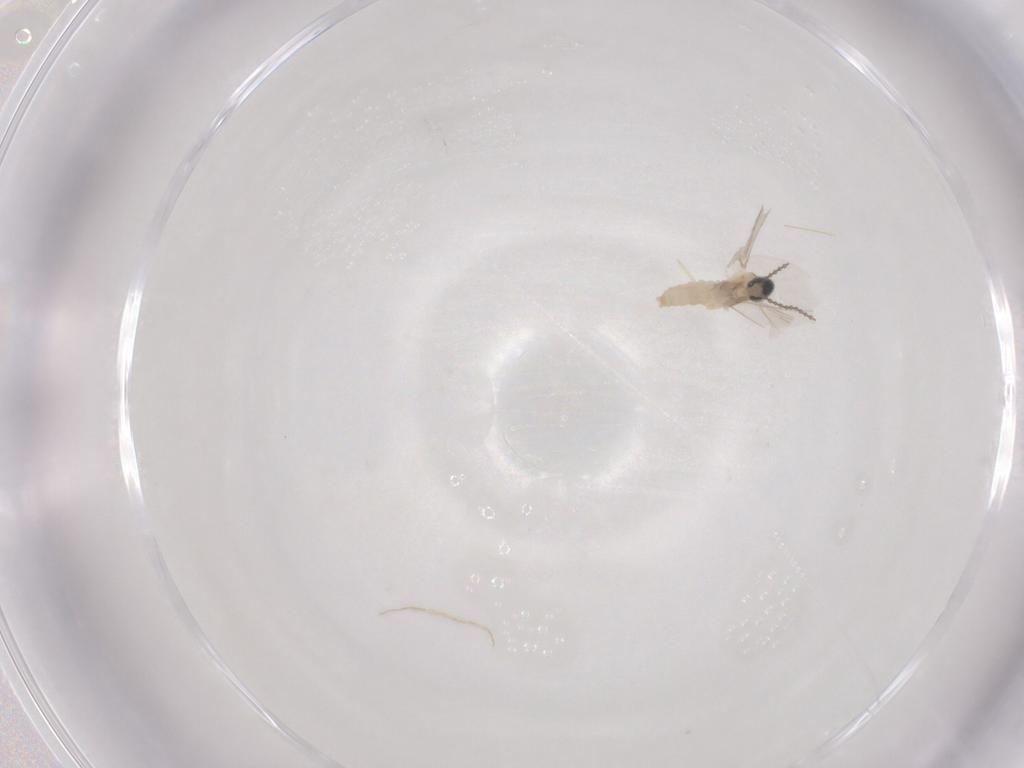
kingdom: Animalia
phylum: Arthropoda
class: Insecta
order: Diptera
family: Cecidomyiidae
